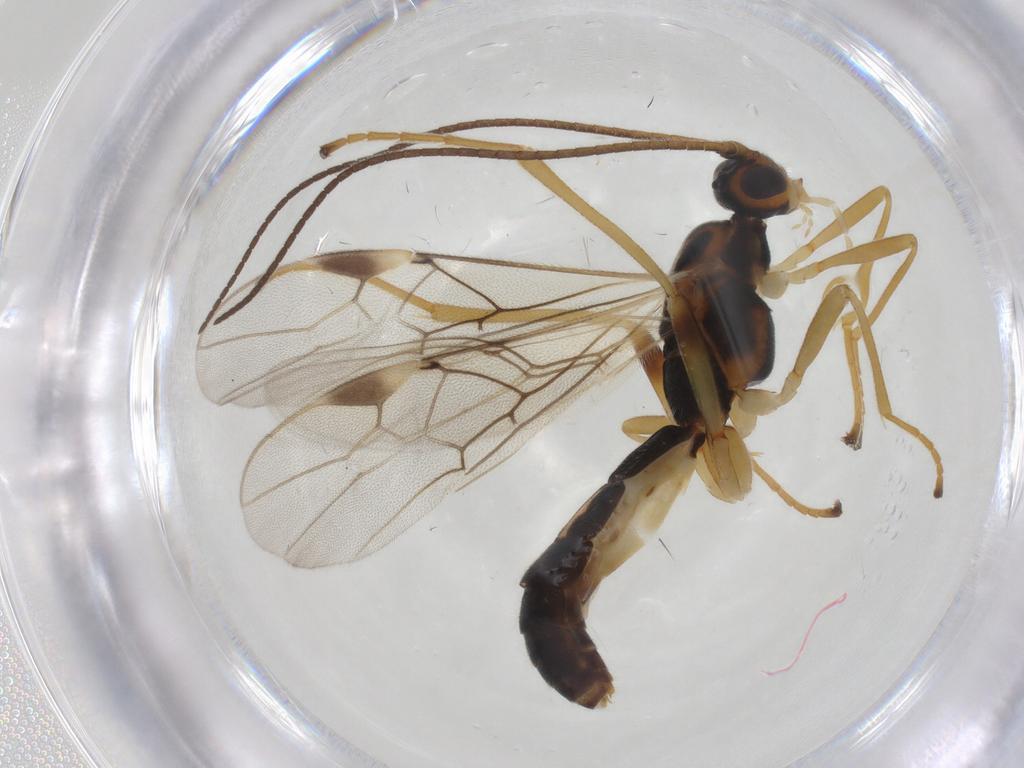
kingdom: Animalia
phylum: Arthropoda
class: Insecta
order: Hymenoptera
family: Braconidae
